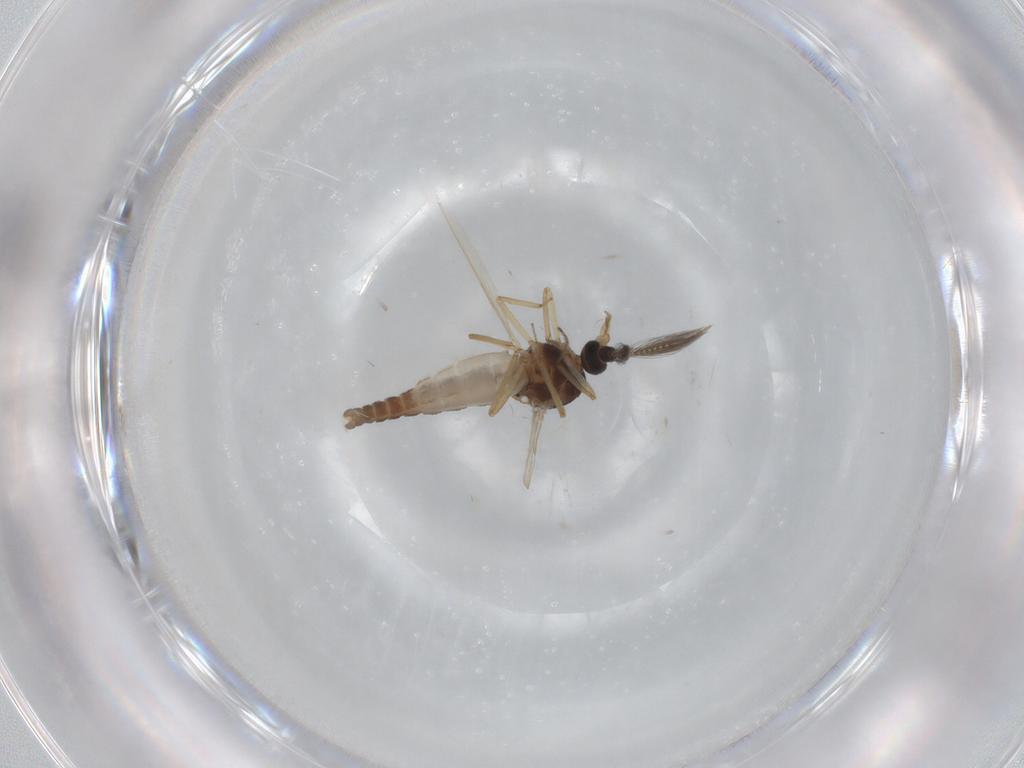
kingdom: Animalia
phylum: Arthropoda
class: Insecta
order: Diptera
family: Ceratopogonidae
